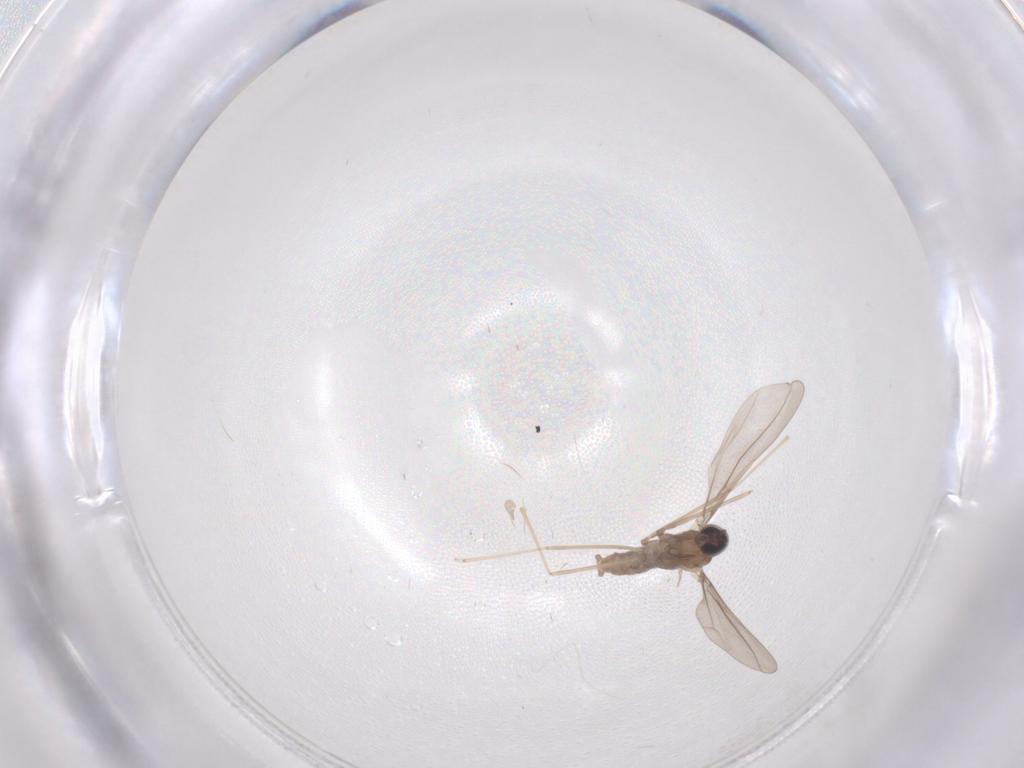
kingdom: Animalia
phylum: Arthropoda
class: Insecta
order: Diptera
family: Cecidomyiidae
